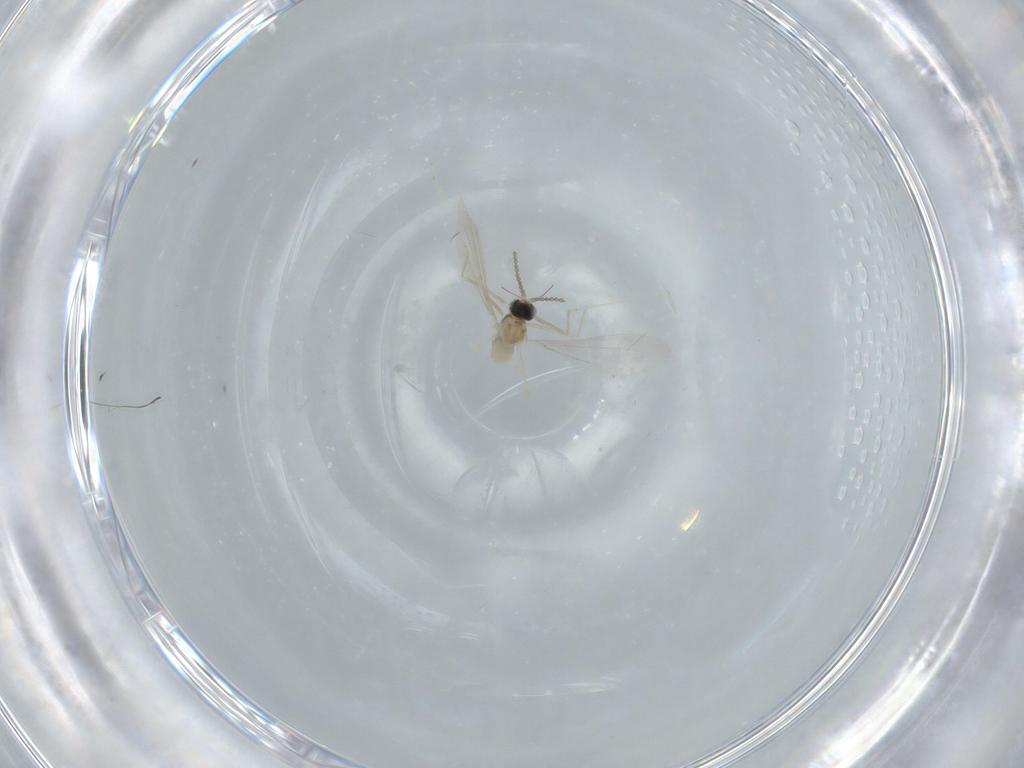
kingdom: Animalia
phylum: Arthropoda
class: Insecta
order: Diptera
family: Cecidomyiidae
